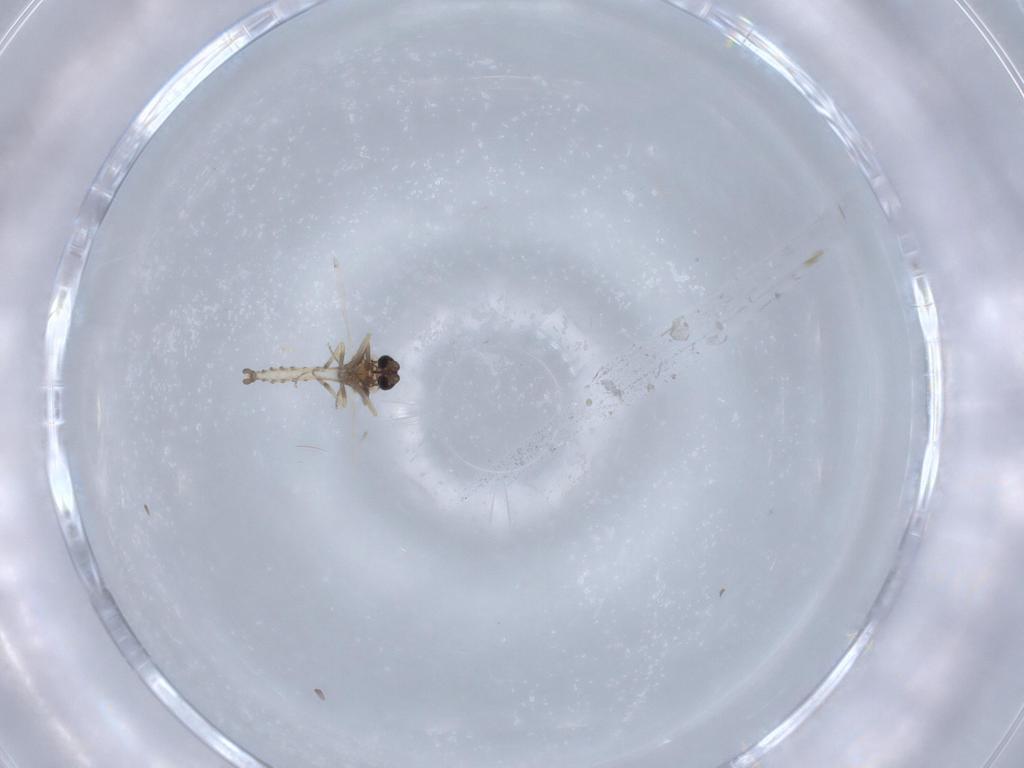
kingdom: Animalia
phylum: Arthropoda
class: Insecta
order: Diptera
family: Ceratopogonidae
